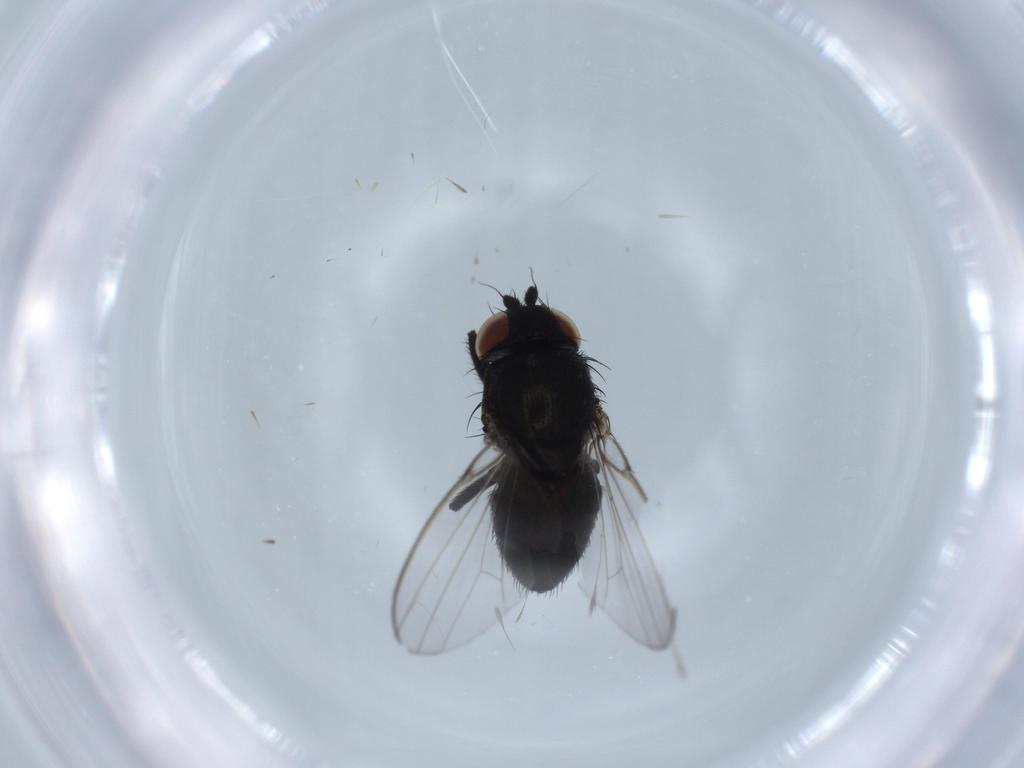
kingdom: Animalia
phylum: Arthropoda
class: Insecta
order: Diptera
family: Milichiidae
